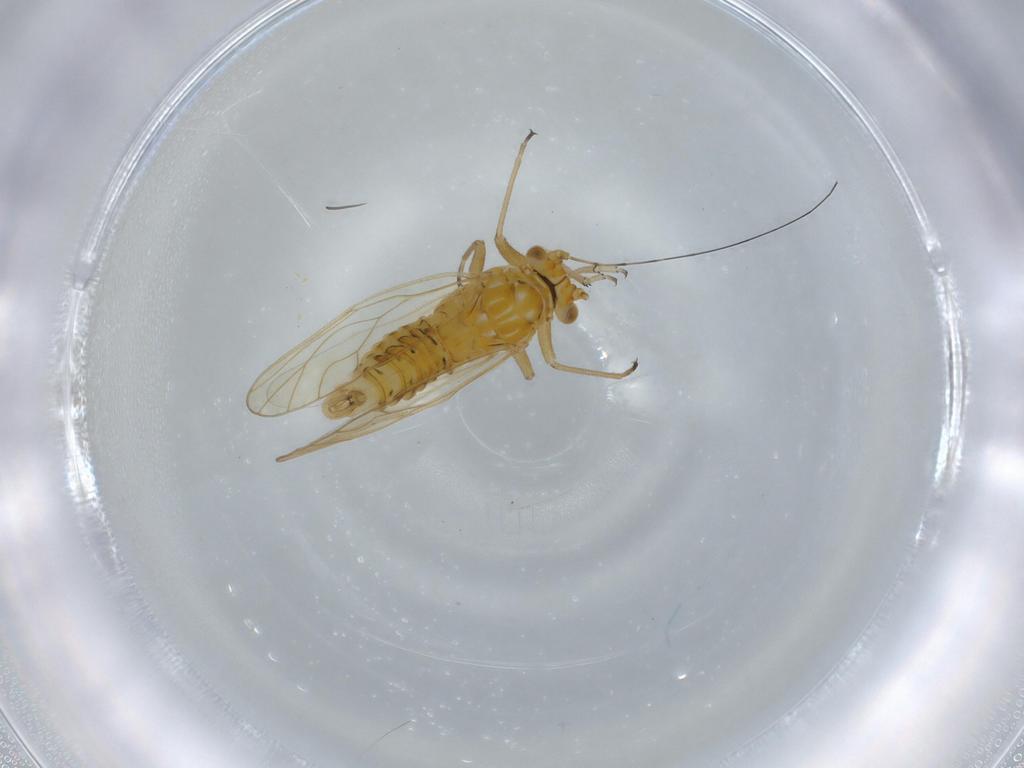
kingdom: Animalia
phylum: Arthropoda
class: Insecta
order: Hemiptera
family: Psyllidae
